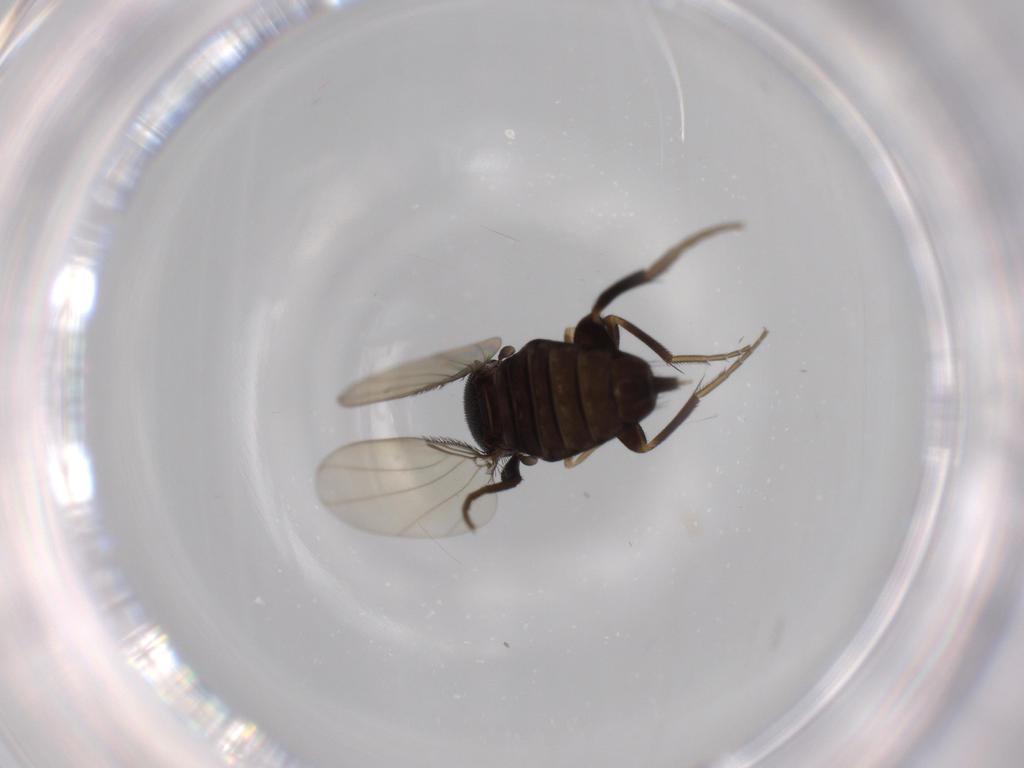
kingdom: Animalia
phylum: Arthropoda
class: Insecta
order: Diptera
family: Phoridae
